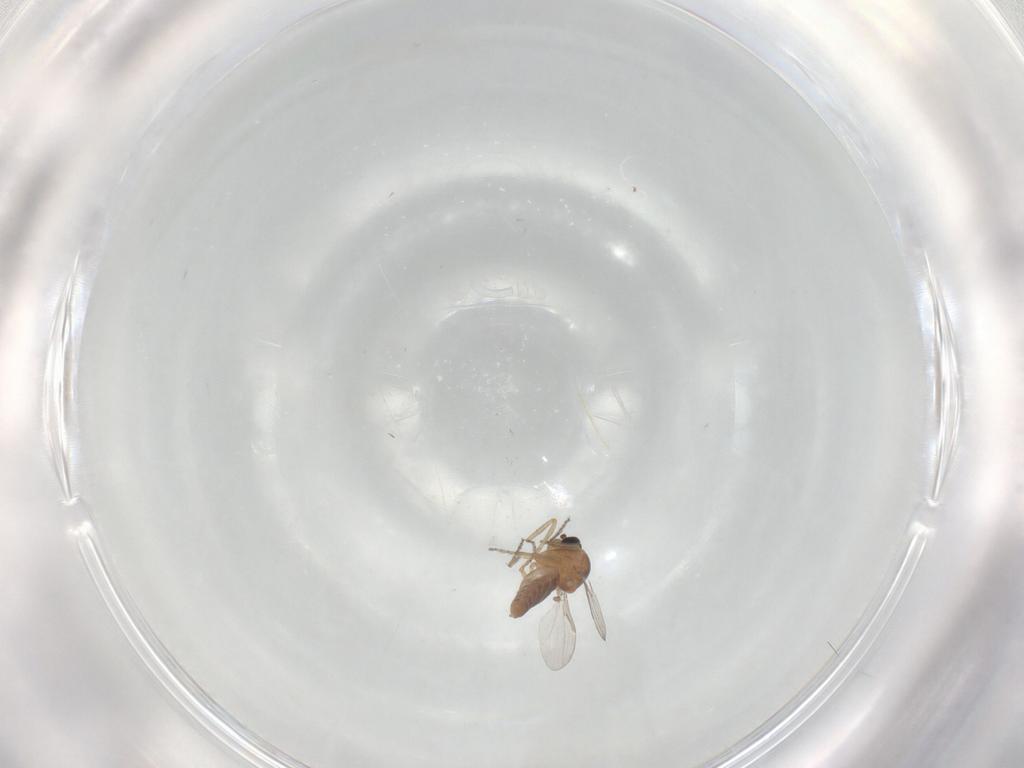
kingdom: Animalia
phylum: Arthropoda
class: Insecta
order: Diptera
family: Ceratopogonidae
